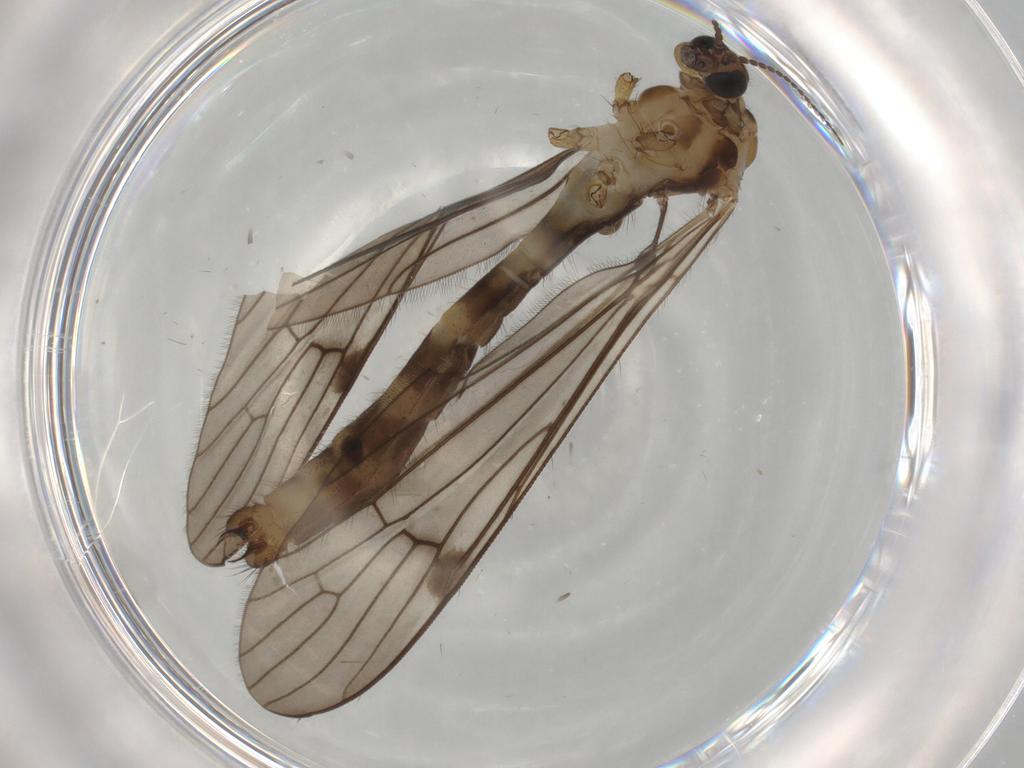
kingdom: Animalia
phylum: Arthropoda
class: Insecta
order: Diptera
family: Limoniidae
